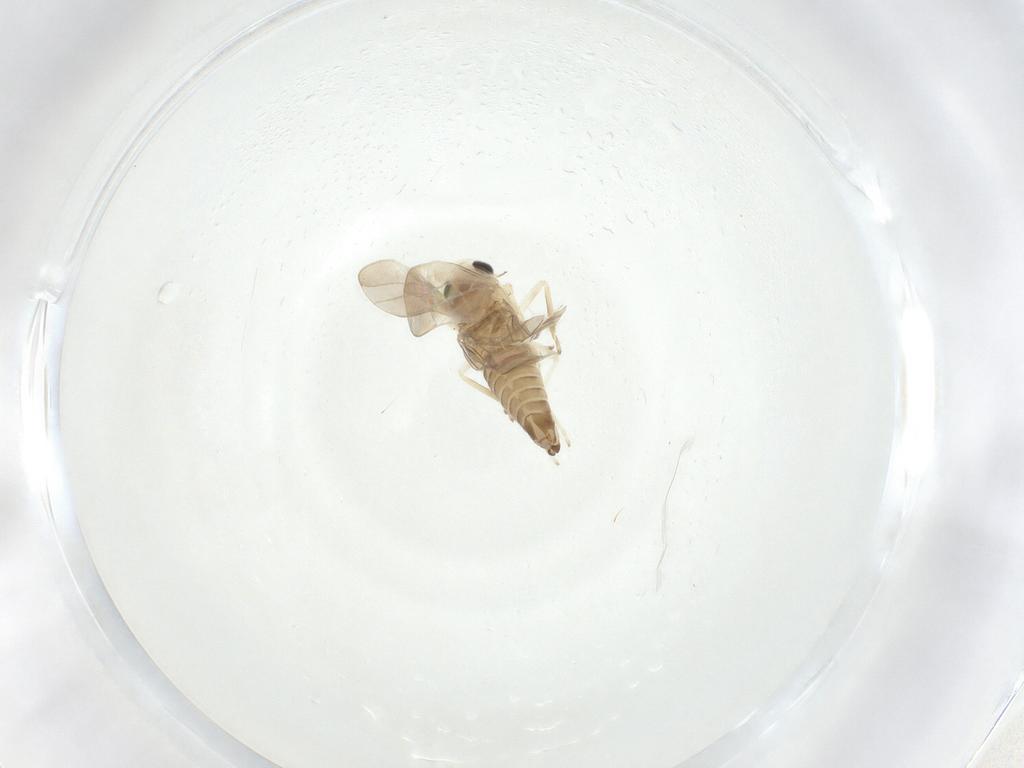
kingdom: Animalia
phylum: Arthropoda
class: Insecta
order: Hemiptera
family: Cicadellidae
